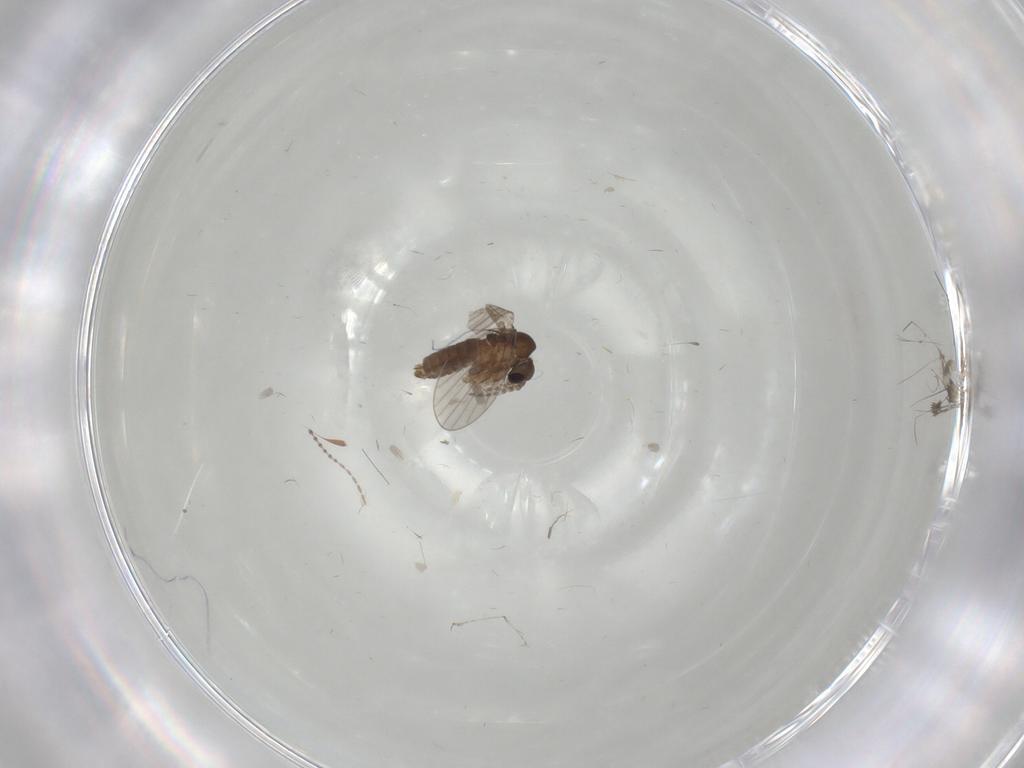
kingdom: Animalia
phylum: Arthropoda
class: Insecta
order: Diptera
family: Ceratopogonidae
